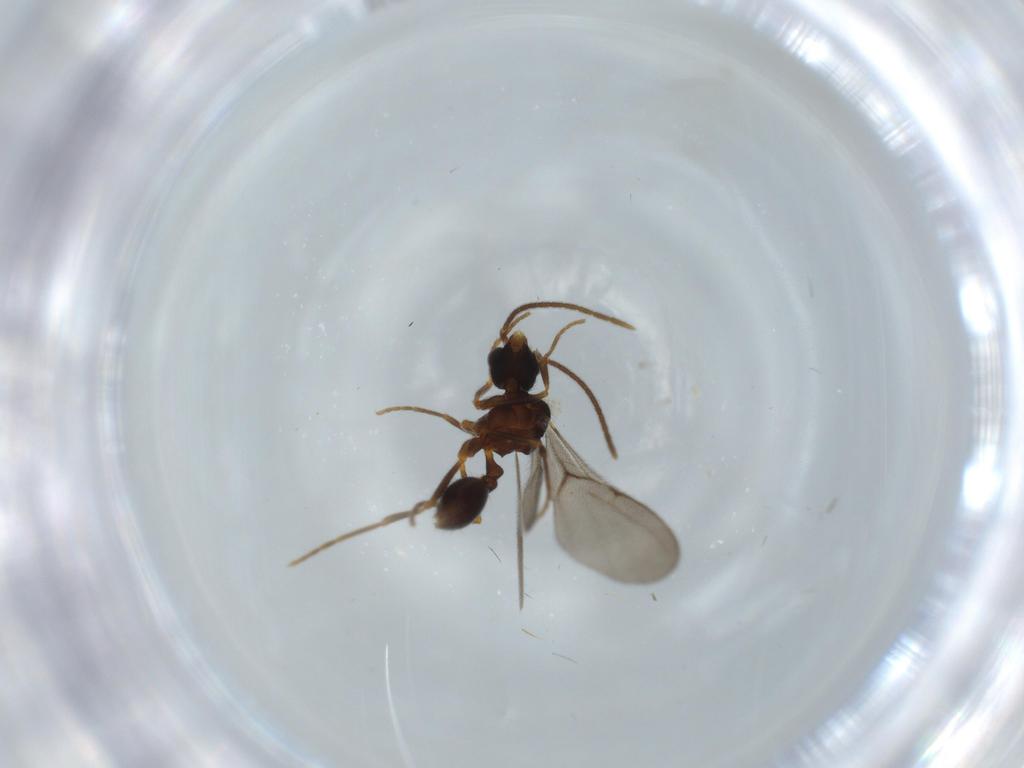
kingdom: Animalia
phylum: Arthropoda
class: Insecta
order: Hymenoptera
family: Formicidae
